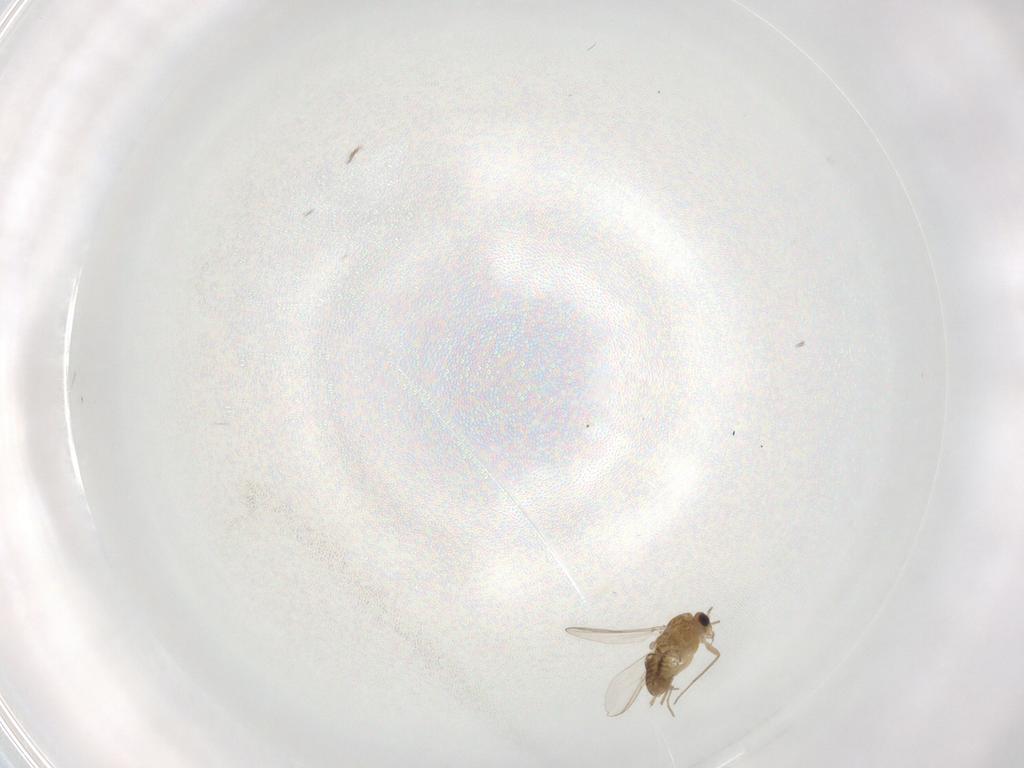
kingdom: Animalia
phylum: Arthropoda
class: Insecta
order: Diptera
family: Chironomidae
